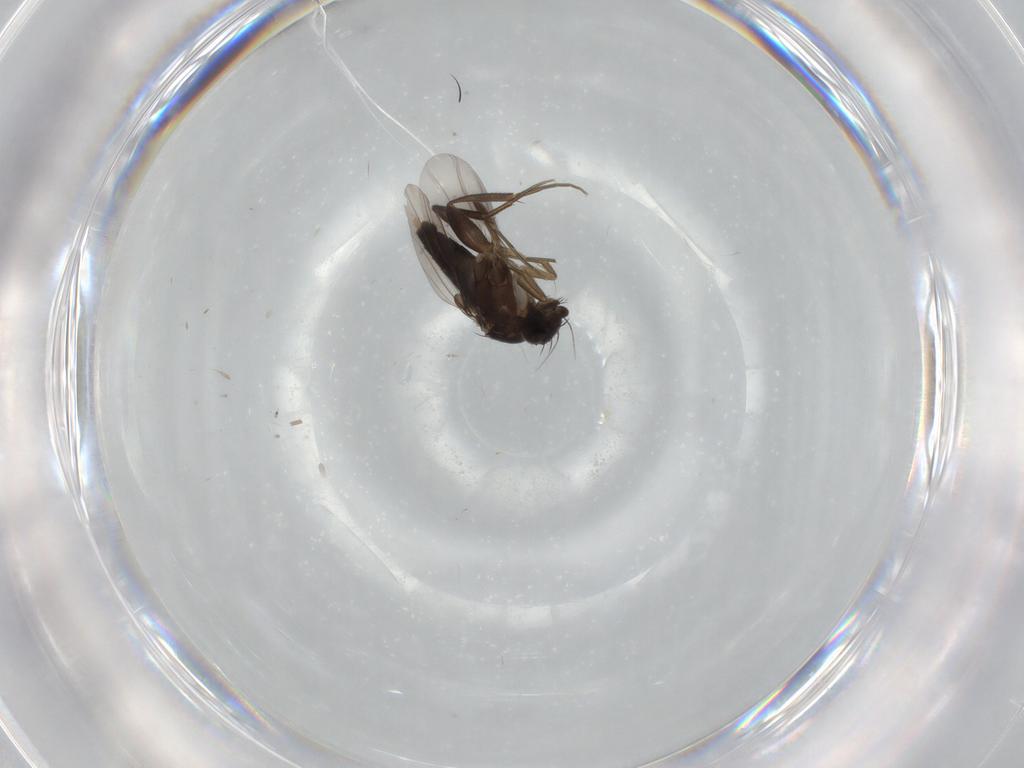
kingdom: Animalia
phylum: Arthropoda
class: Insecta
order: Diptera
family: Phoridae
